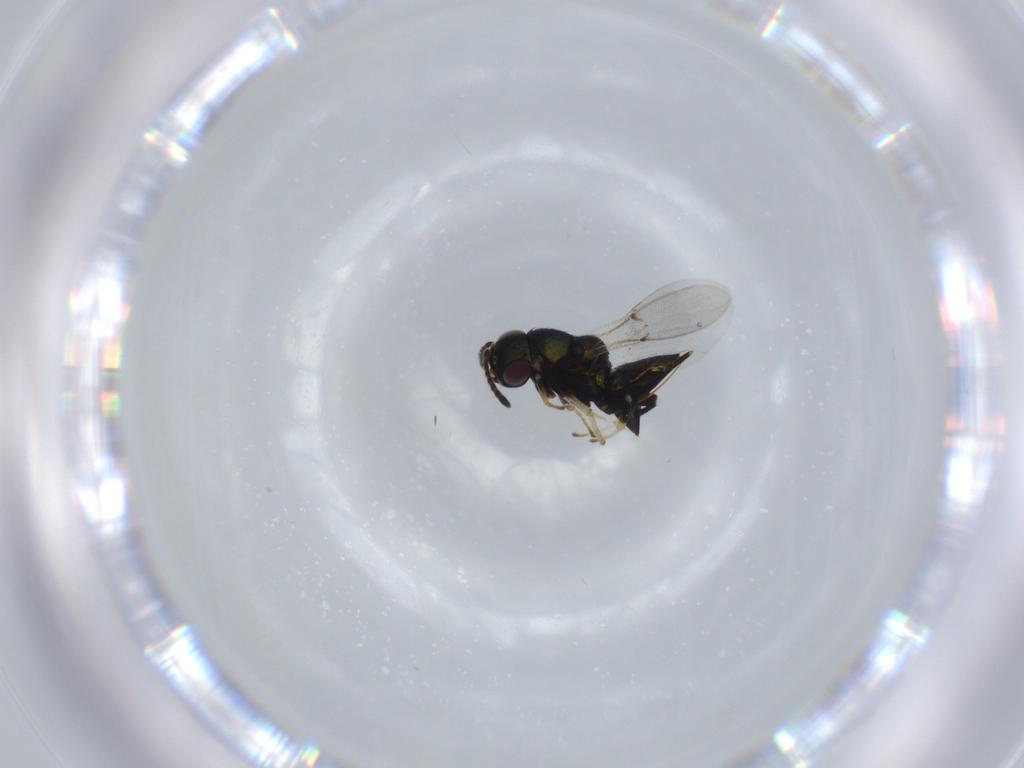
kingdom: Animalia
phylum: Arthropoda
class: Insecta
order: Hymenoptera
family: Encyrtidae
